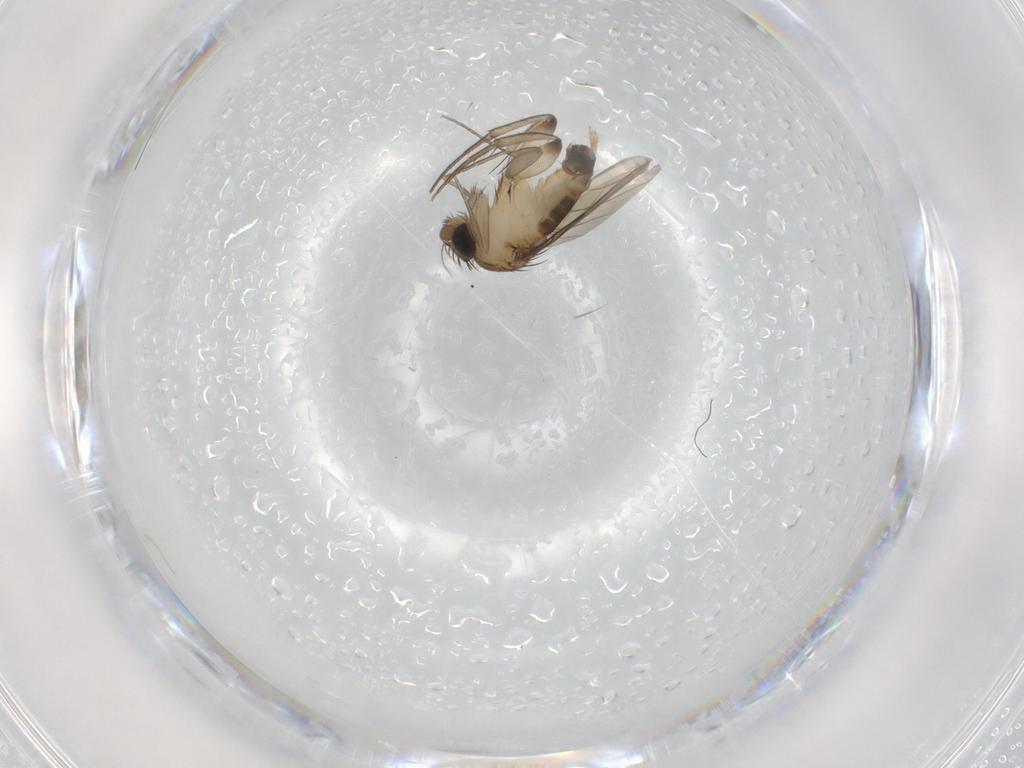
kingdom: Animalia
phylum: Arthropoda
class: Insecta
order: Diptera
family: Phoridae
